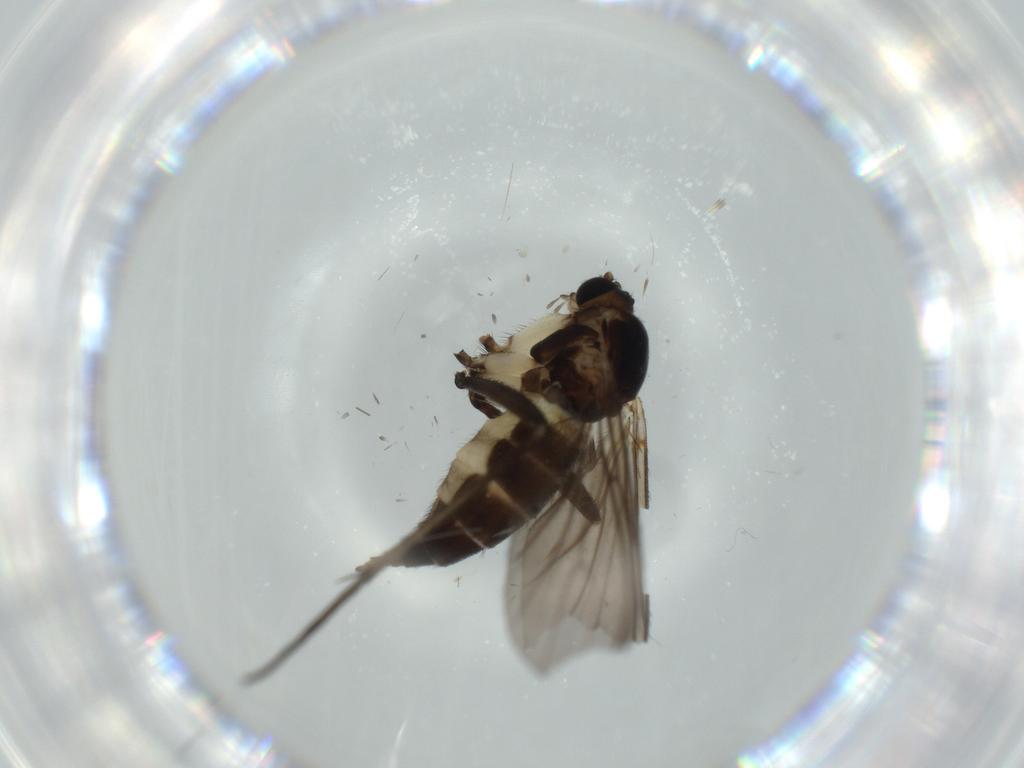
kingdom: Animalia
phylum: Arthropoda
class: Insecta
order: Diptera
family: Sciaridae
